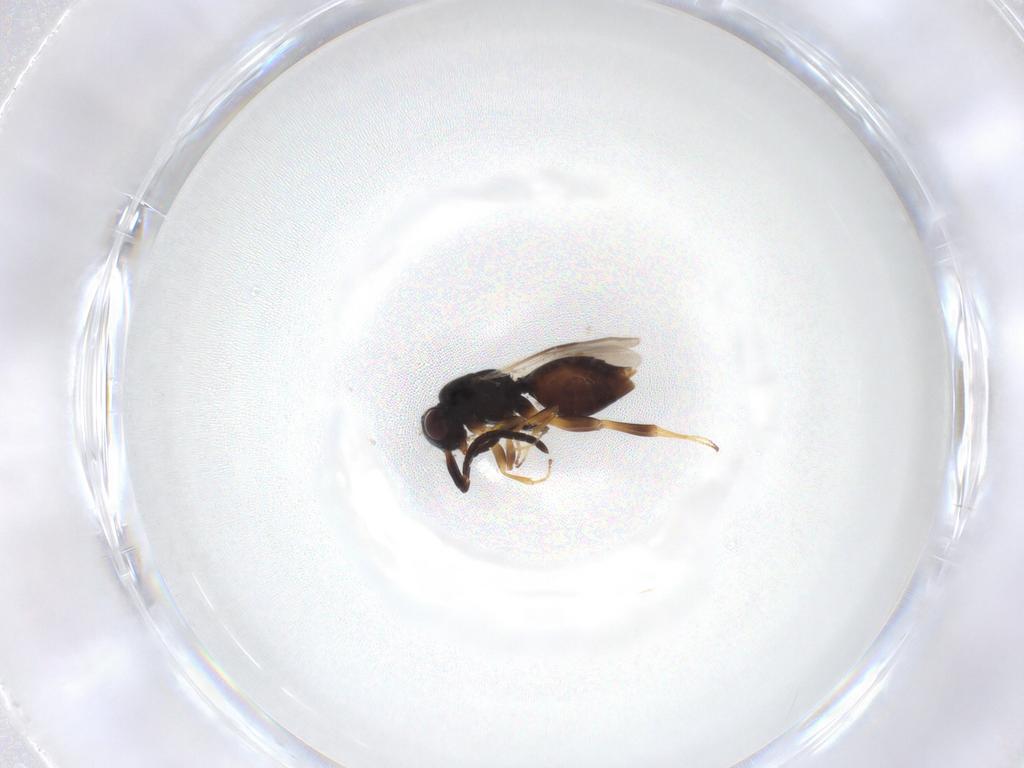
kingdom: Animalia
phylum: Arthropoda
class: Insecta
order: Hymenoptera
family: Megaspilidae
